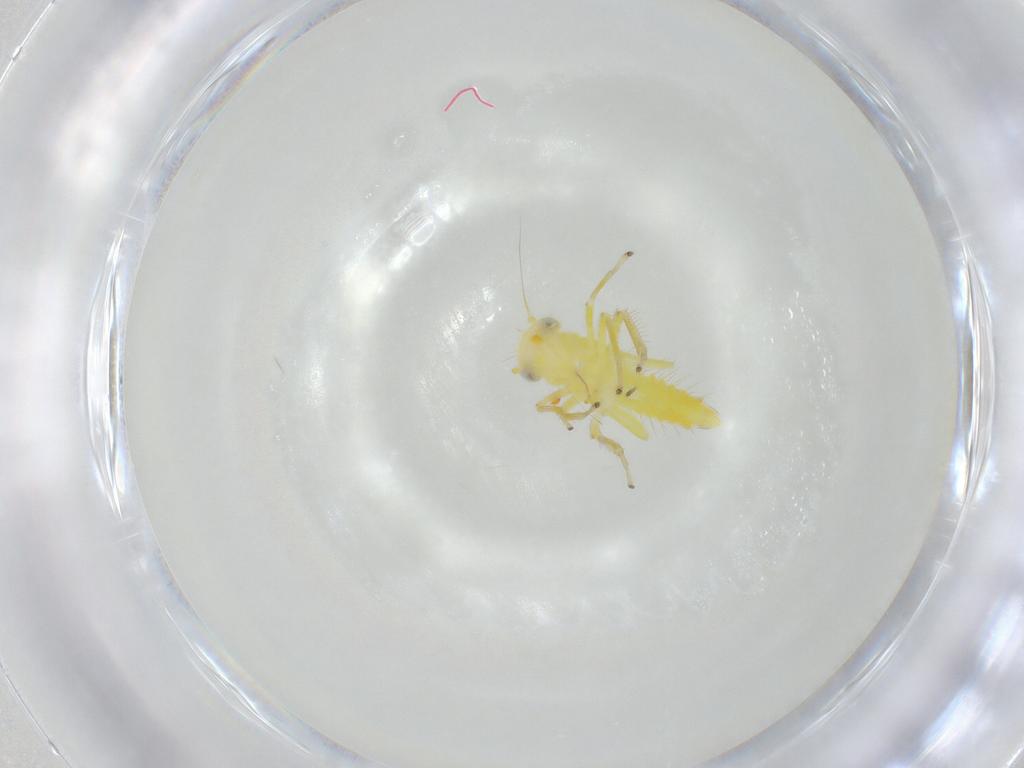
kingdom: Animalia
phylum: Arthropoda
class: Insecta
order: Hemiptera
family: Cicadellidae
